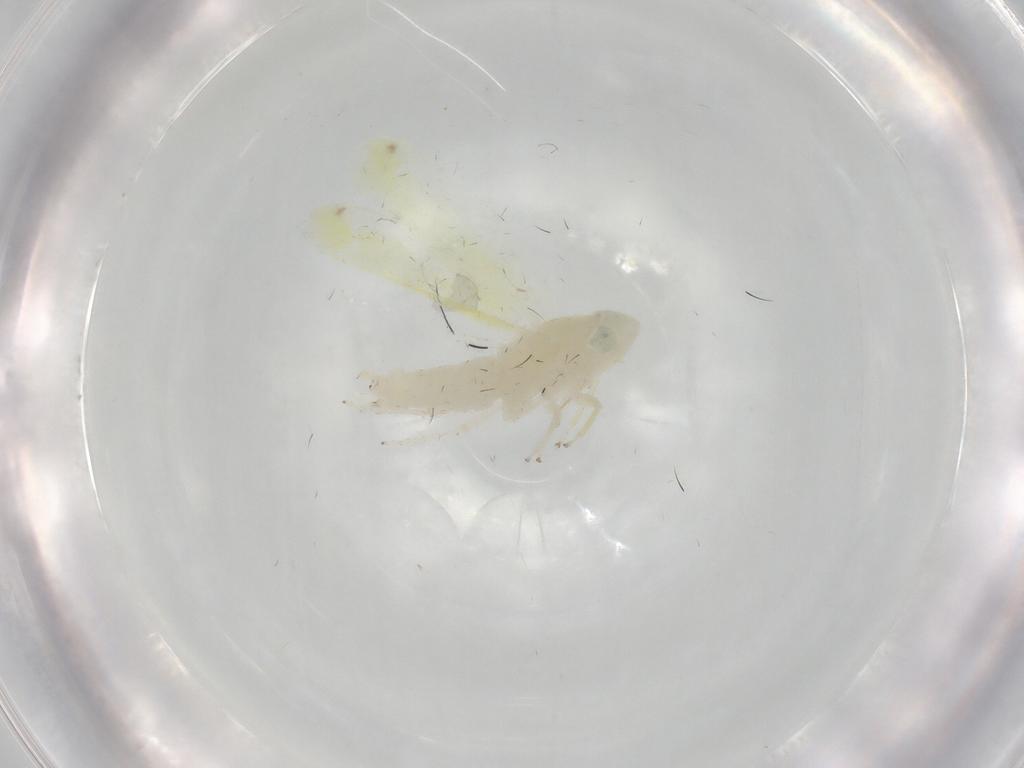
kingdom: Animalia
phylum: Arthropoda
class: Insecta
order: Hemiptera
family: Cicadellidae
